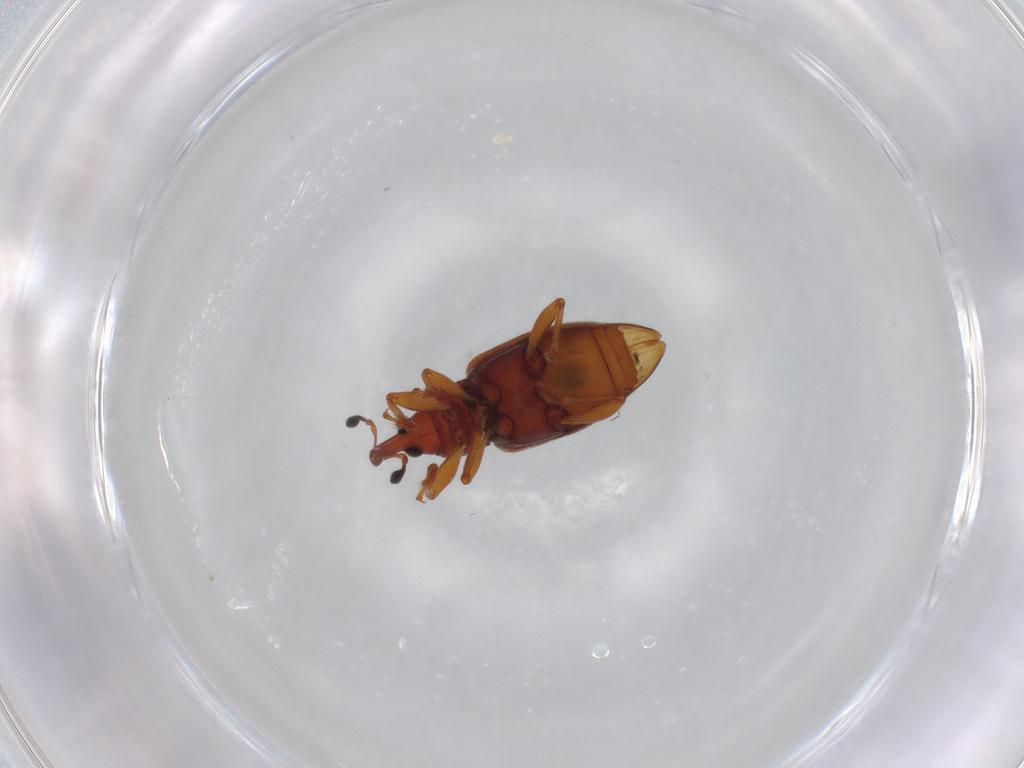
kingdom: Animalia
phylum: Arthropoda
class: Insecta
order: Coleoptera
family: Curculionidae
